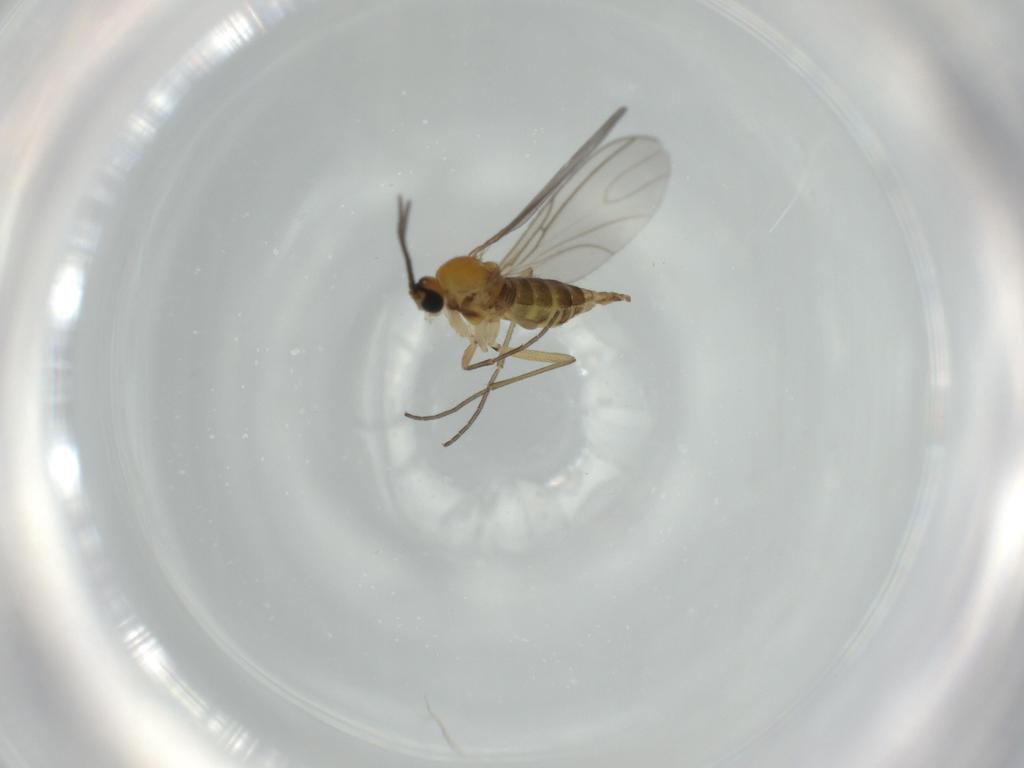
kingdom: Animalia
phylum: Arthropoda
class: Insecta
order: Diptera
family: Sciaridae
